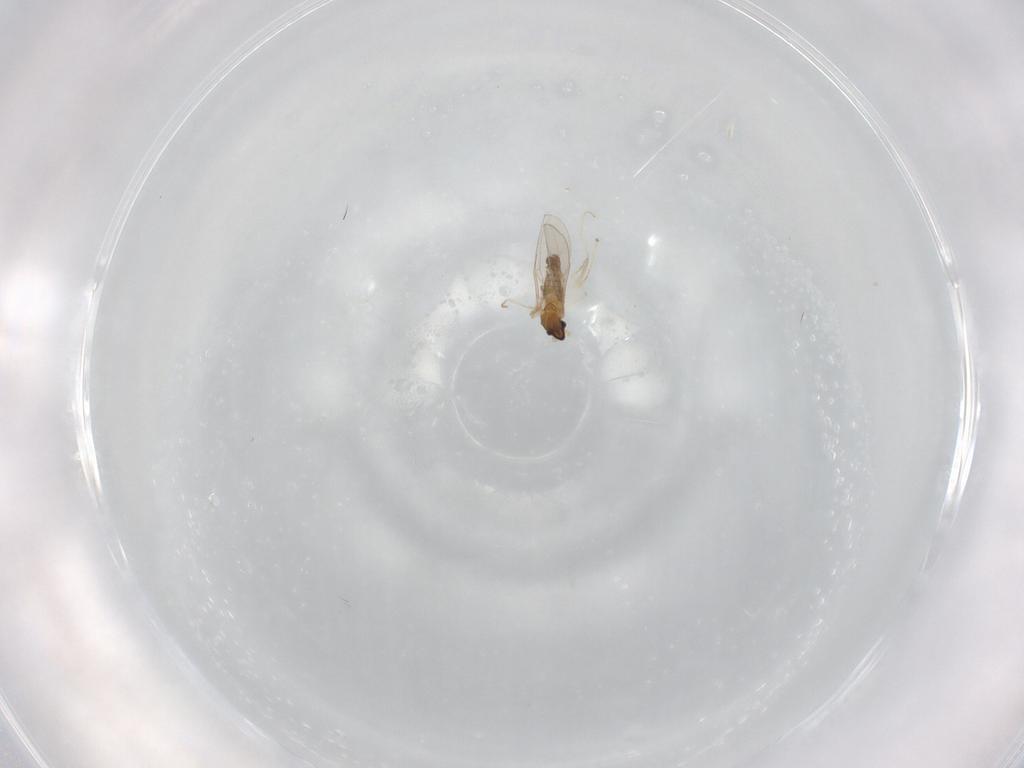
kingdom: Animalia
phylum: Arthropoda
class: Insecta
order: Diptera
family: Cecidomyiidae
